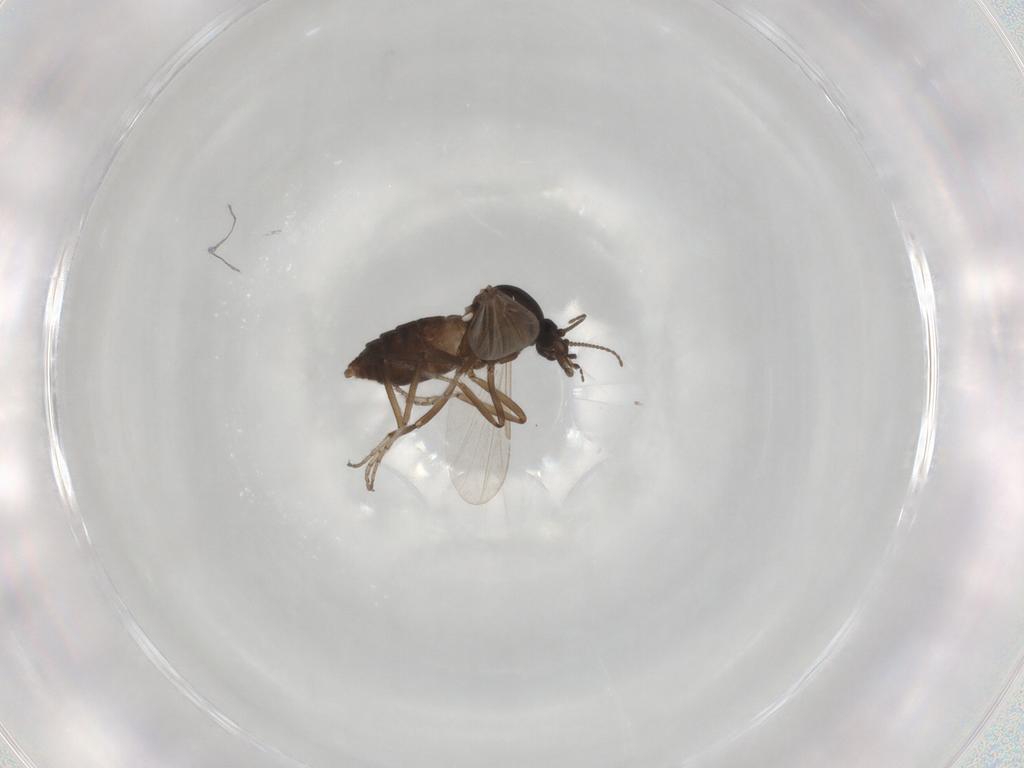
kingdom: Animalia
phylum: Arthropoda
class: Insecta
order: Diptera
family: Ceratopogonidae
